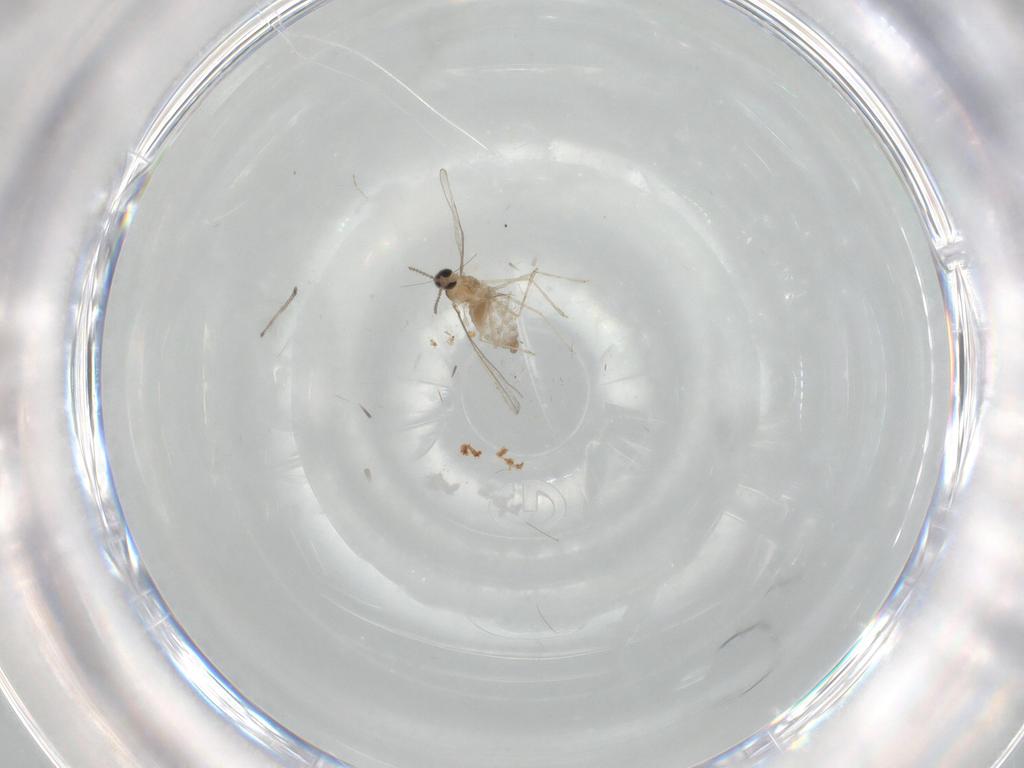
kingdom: Animalia
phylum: Arthropoda
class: Insecta
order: Diptera
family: Cecidomyiidae
